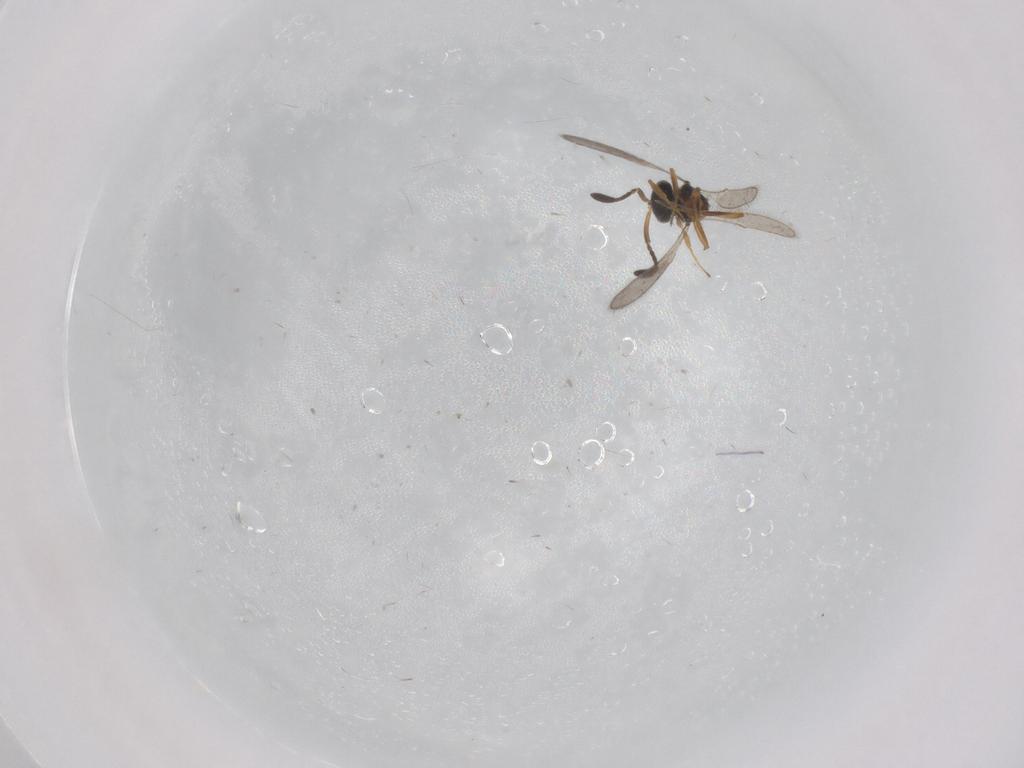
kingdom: Animalia
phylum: Arthropoda
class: Insecta
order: Hymenoptera
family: Scelionidae
